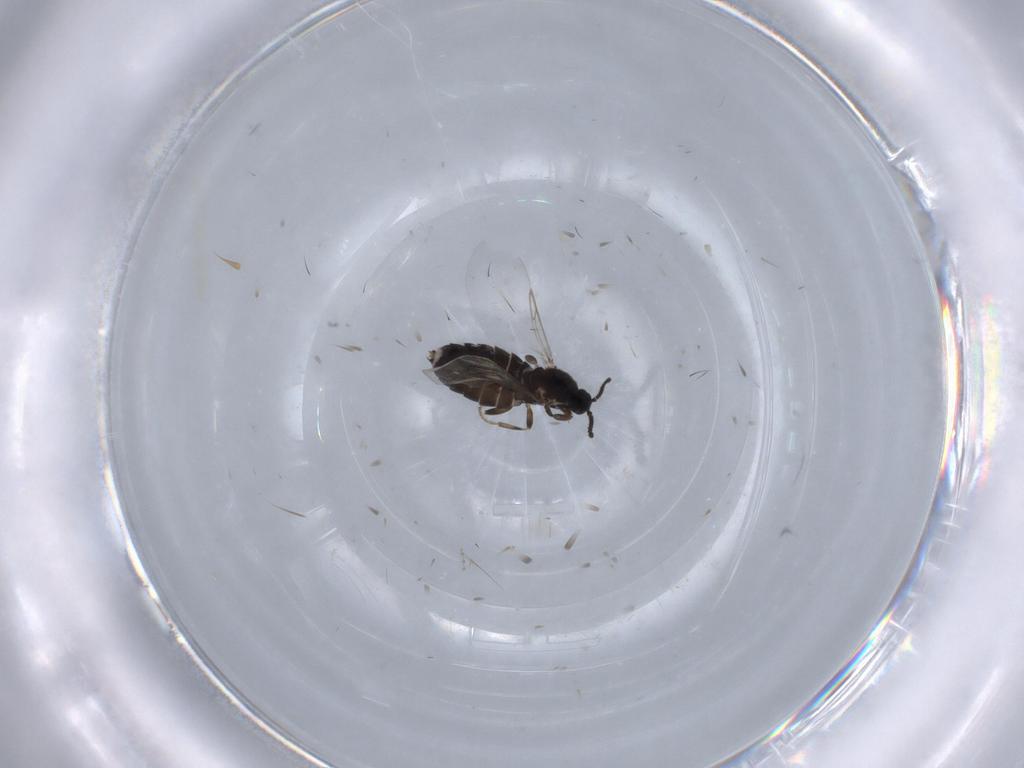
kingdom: Animalia
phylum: Arthropoda
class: Insecta
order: Diptera
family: Scatopsidae
